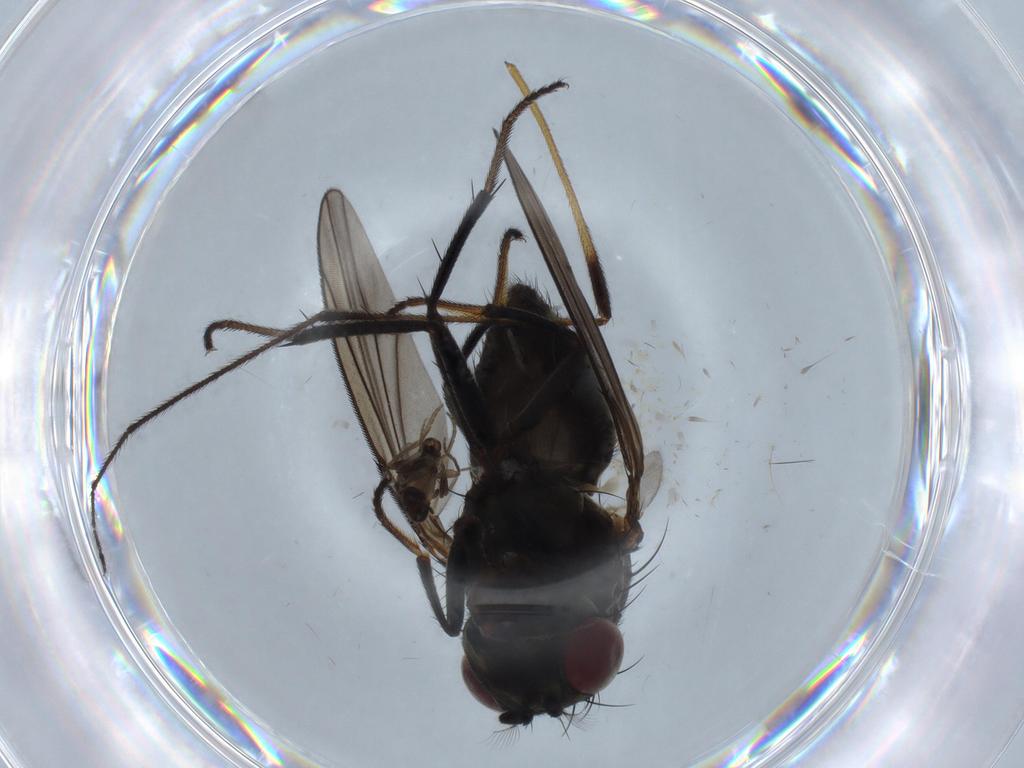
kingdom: Animalia
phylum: Arthropoda
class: Insecta
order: Diptera
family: Ephydridae
